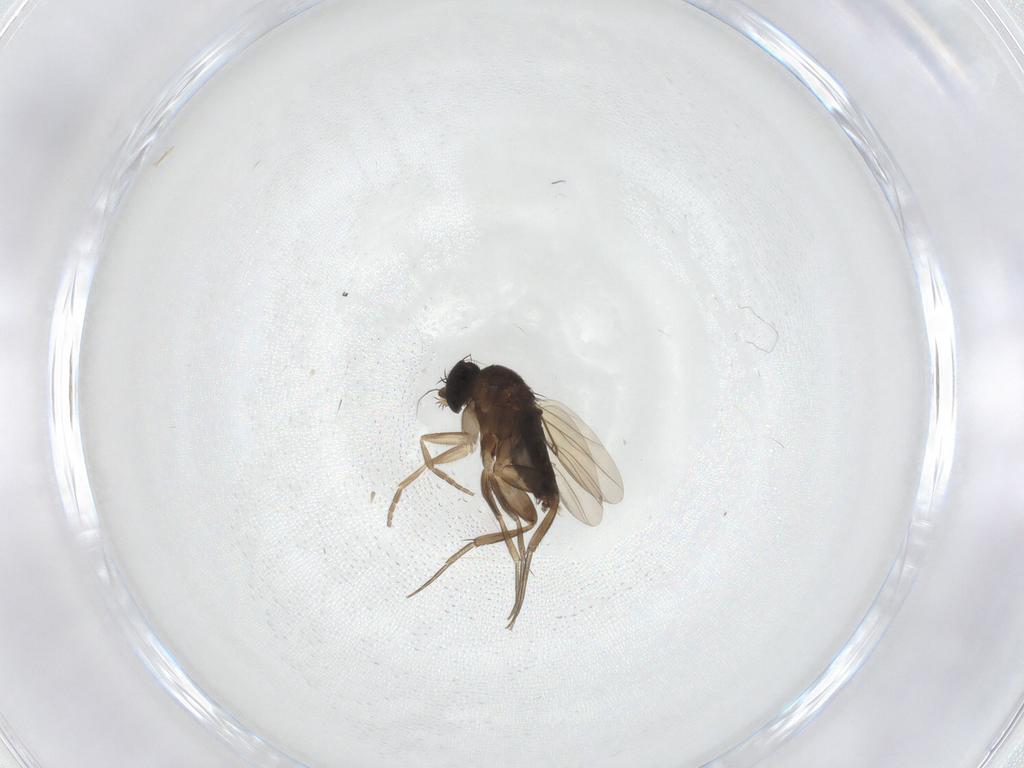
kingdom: Animalia
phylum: Arthropoda
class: Insecta
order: Diptera
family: Phoridae
